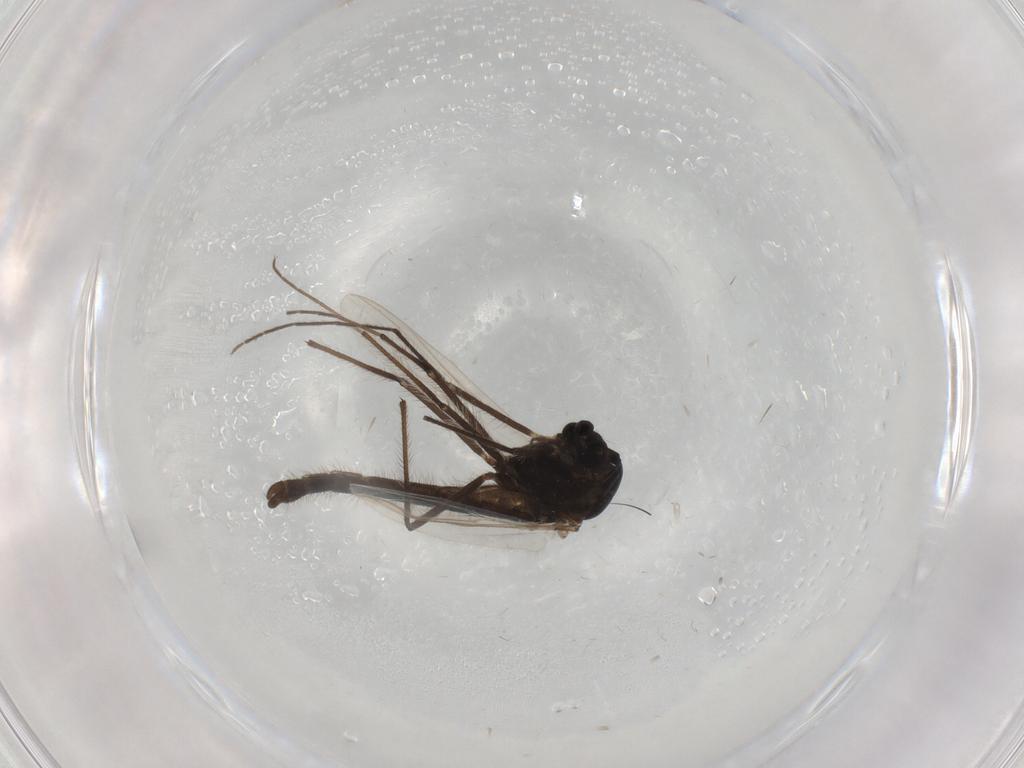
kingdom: Animalia
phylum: Arthropoda
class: Insecta
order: Diptera
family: Chironomidae
